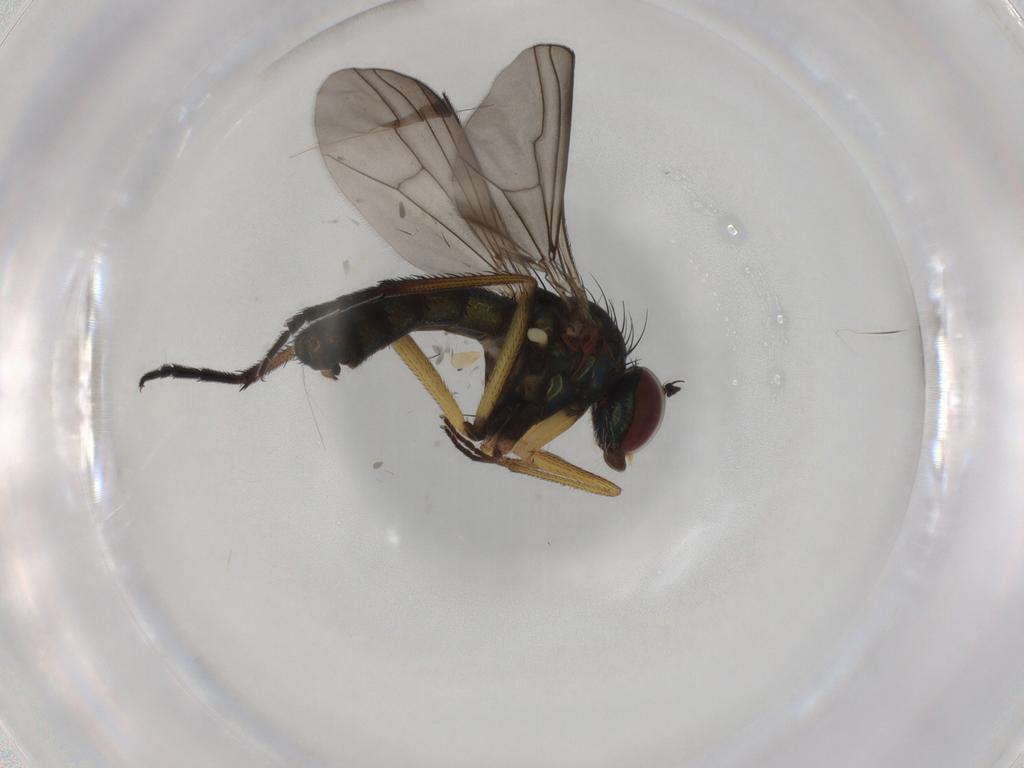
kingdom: Animalia
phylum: Arthropoda
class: Insecta
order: Diptera
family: Dolichopodidae
